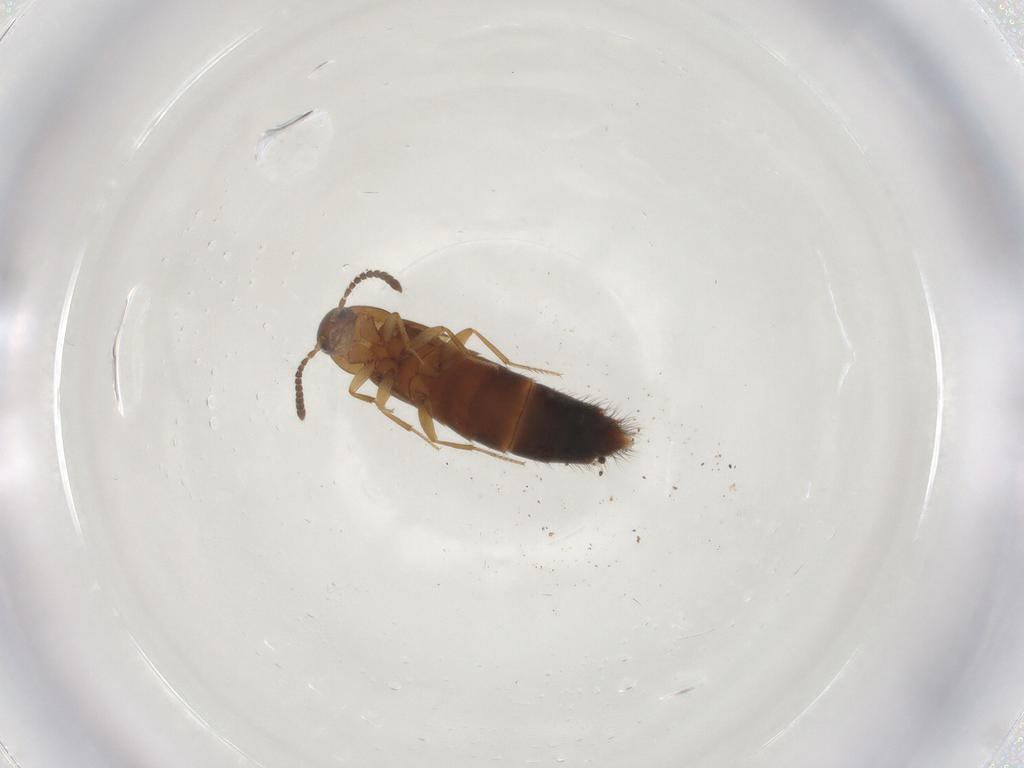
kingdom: Animalia
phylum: Arthropoda
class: Insecta
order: Coleoptera
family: Staphylinidae
